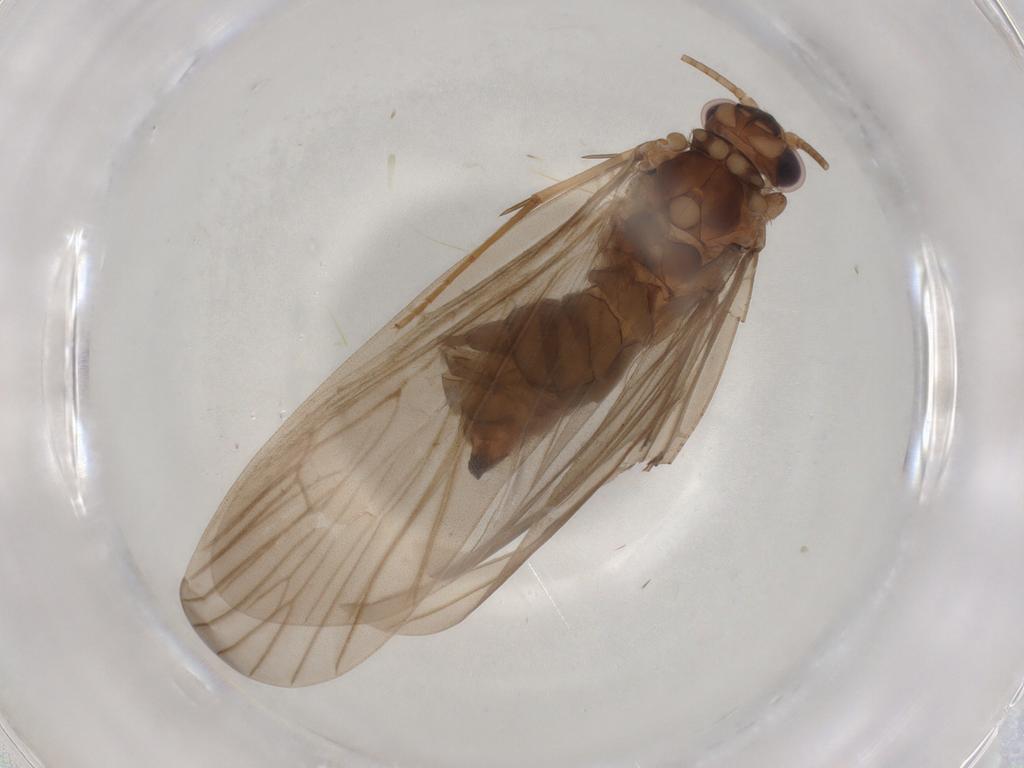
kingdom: Animalia
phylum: Arthropoda
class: Insecta
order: Trichoptera
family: Philopotamidae
